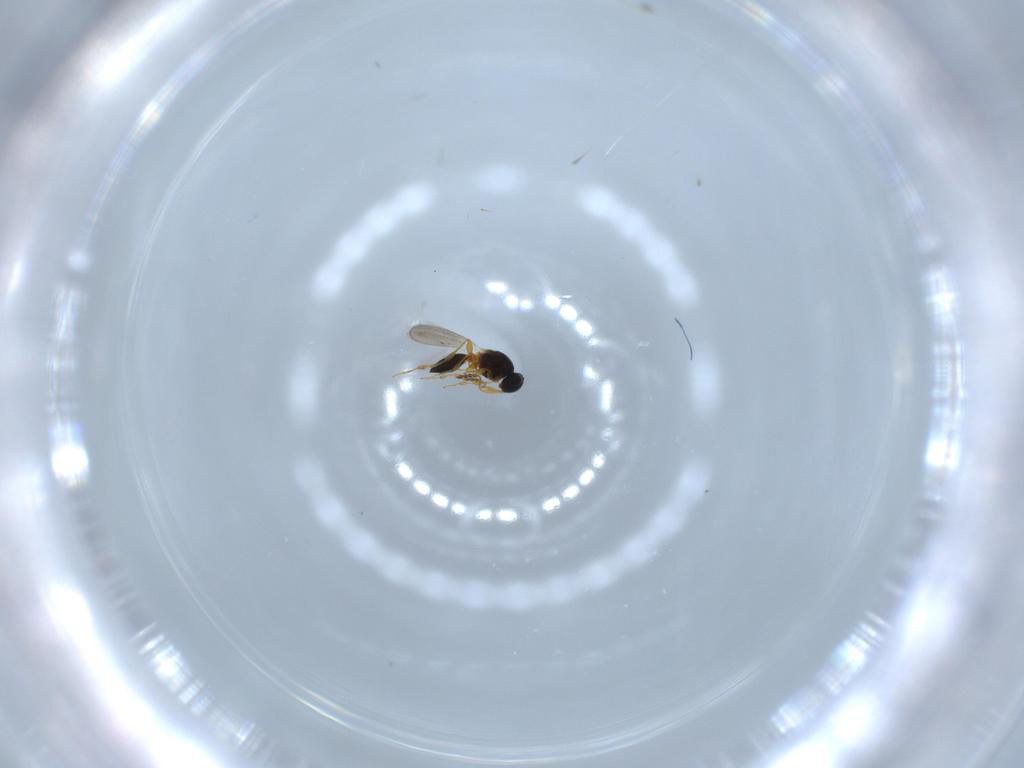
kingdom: Animalia
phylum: Arthropoda
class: Insecta
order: Hymenoptera
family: Platygastridae
